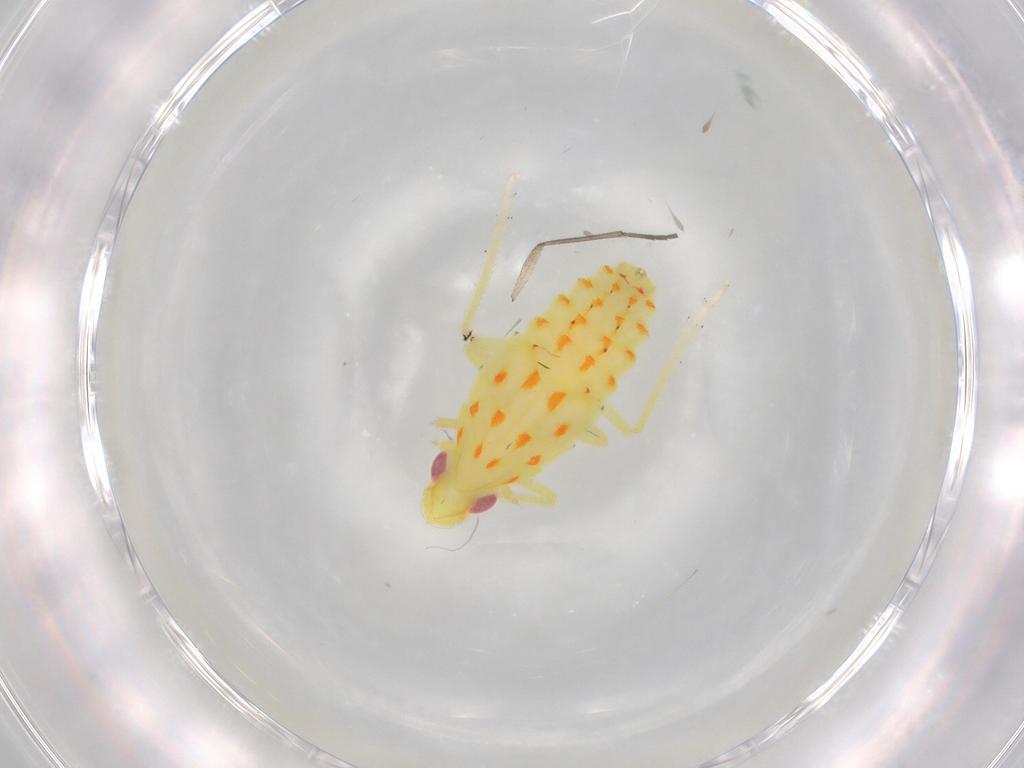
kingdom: Animalia
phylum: Arthropoda
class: Insecta
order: Hemiptera
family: Tropiduchidae
